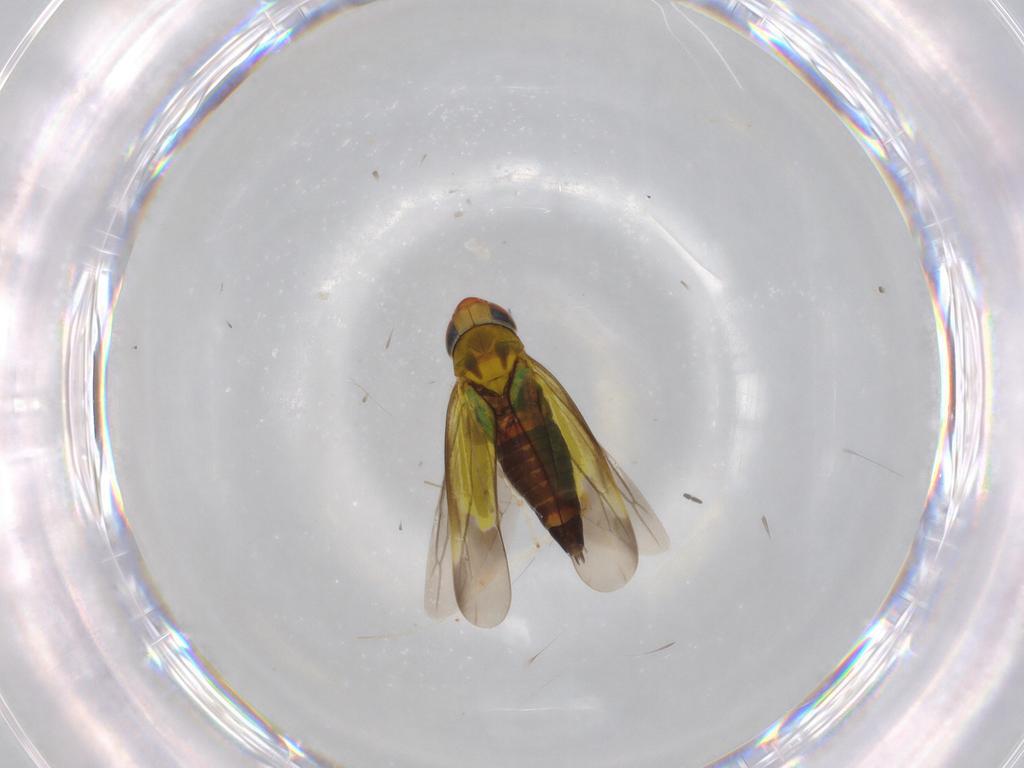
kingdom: Animalia
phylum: Arthropoda
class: Insecta
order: Hemiptera
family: Cicadellidae
